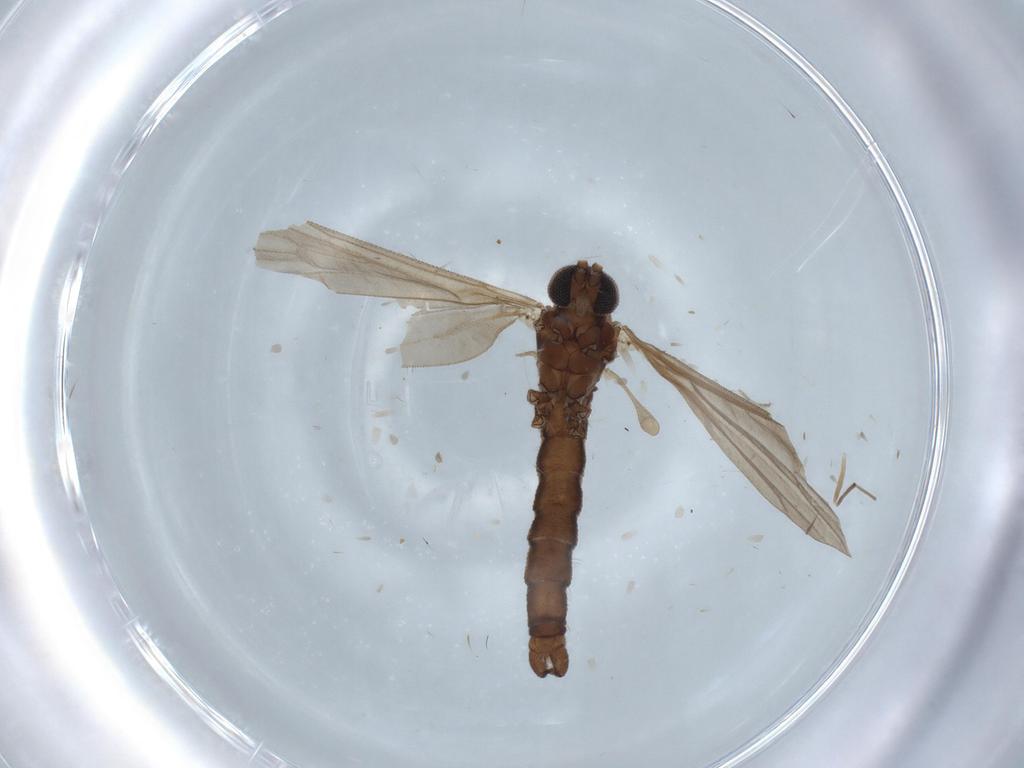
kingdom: Animalia
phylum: Arthropoda
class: Insecta
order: Diptera
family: Limoniidae
